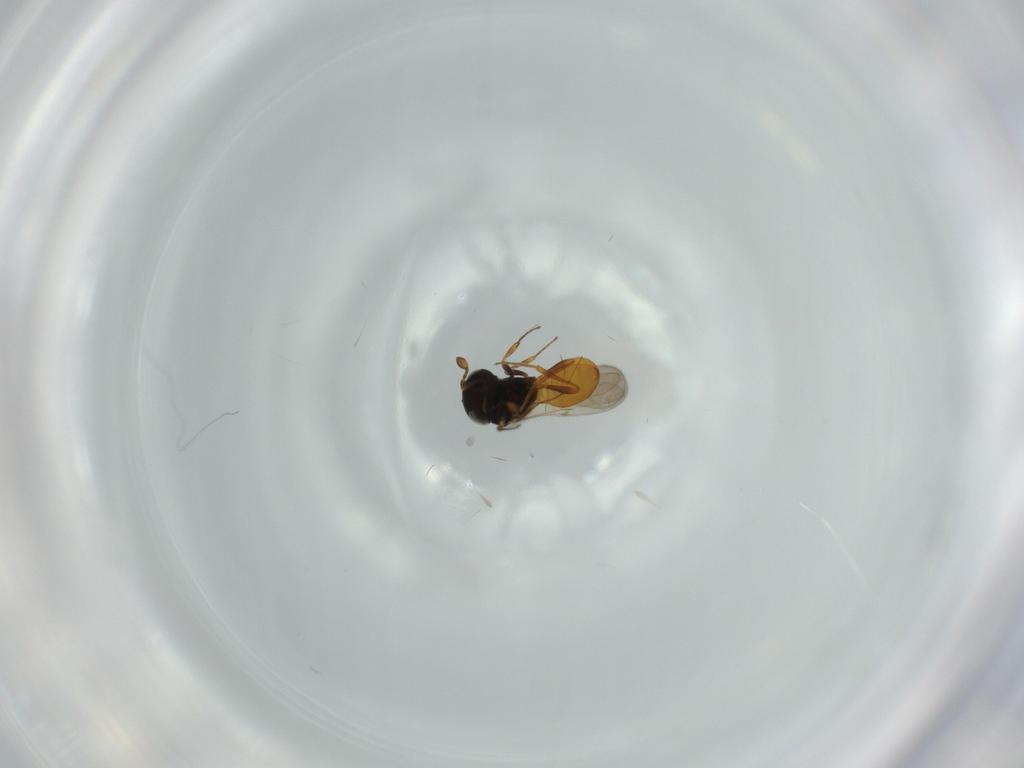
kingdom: Animalia
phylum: Arthropoda
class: Insecta
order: Hymenoptera
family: Scelionidae
